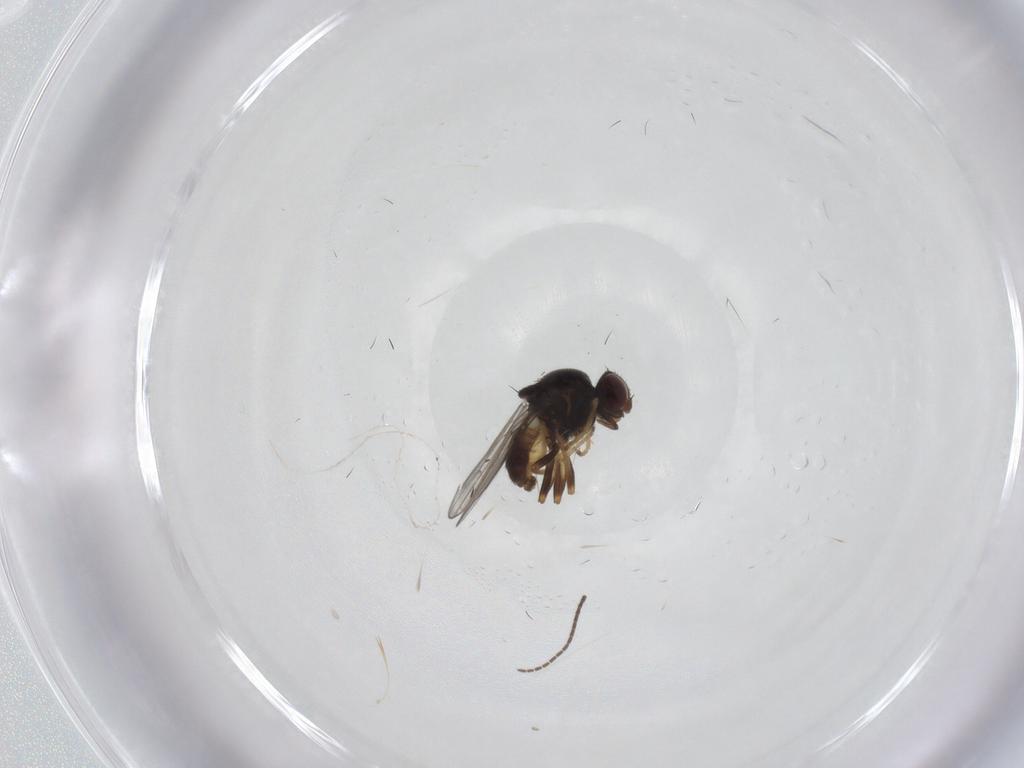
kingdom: Animalia
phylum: Arthropoda
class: Insecta
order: Diptera
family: Chloropidae
